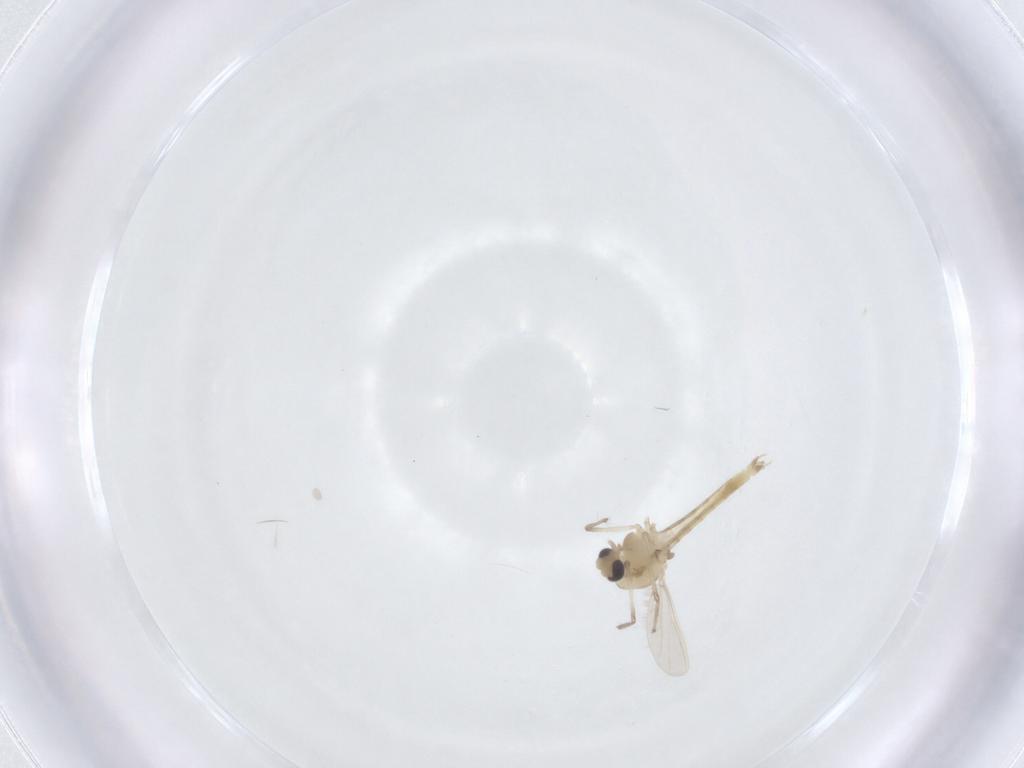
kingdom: Animalia
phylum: Arthropoda
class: Insecta
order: Diptera
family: Chironomidae
